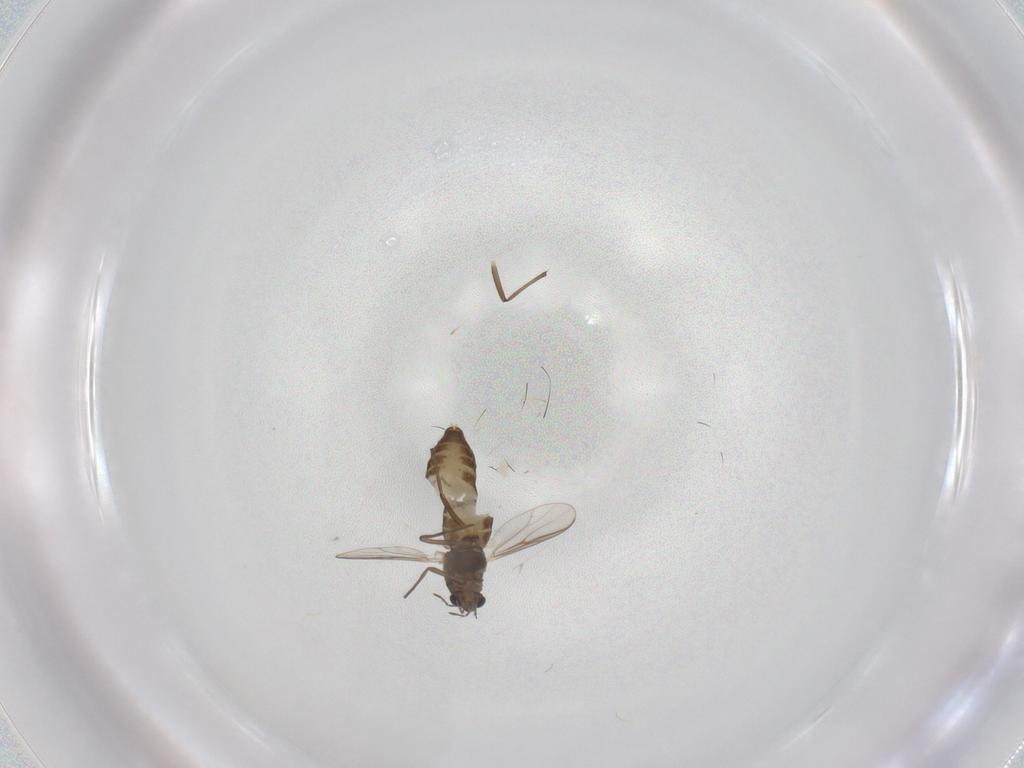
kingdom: Animalia
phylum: Arthropoda
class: Insecta
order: Diptera
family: Chironomidae
